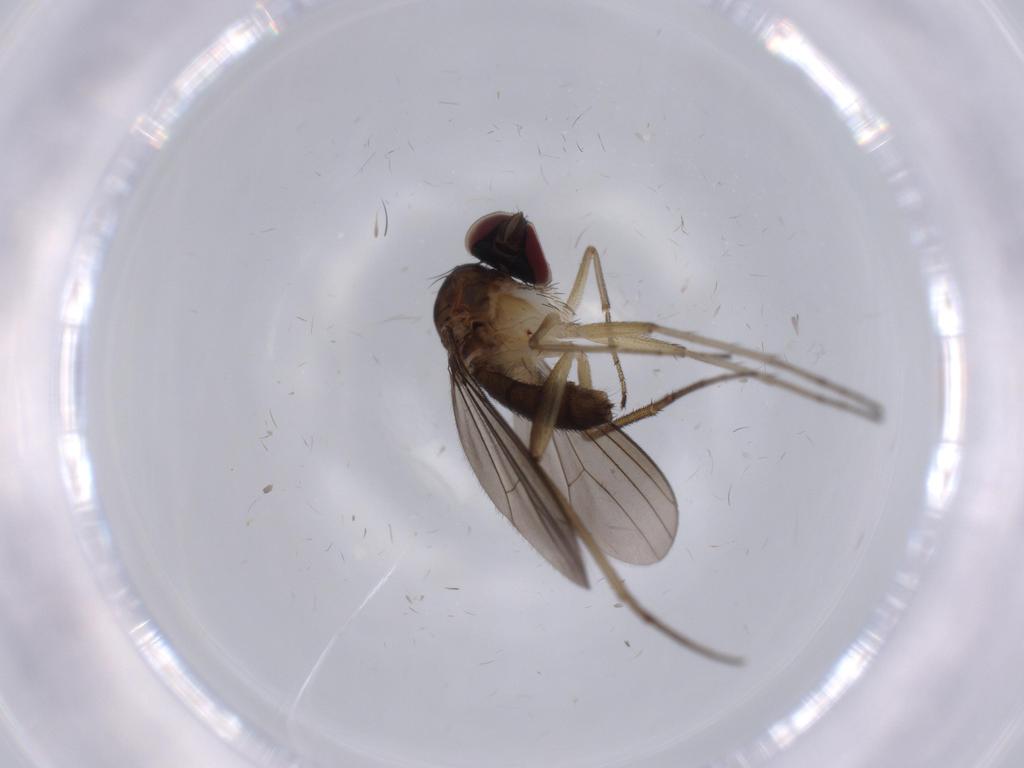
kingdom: Animalia
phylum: Arthropoda
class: Insecta
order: Diptera
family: Dolichopodidae
